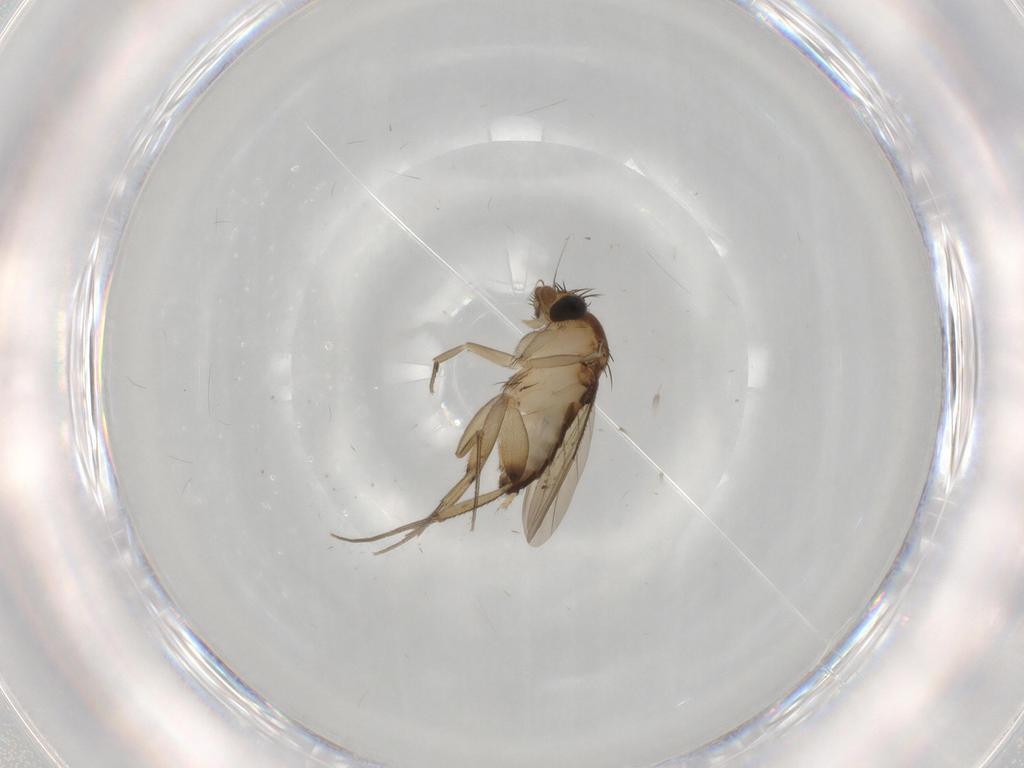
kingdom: Animalia
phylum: Arthropoda
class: Insecta
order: Diptera
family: Phoridae
